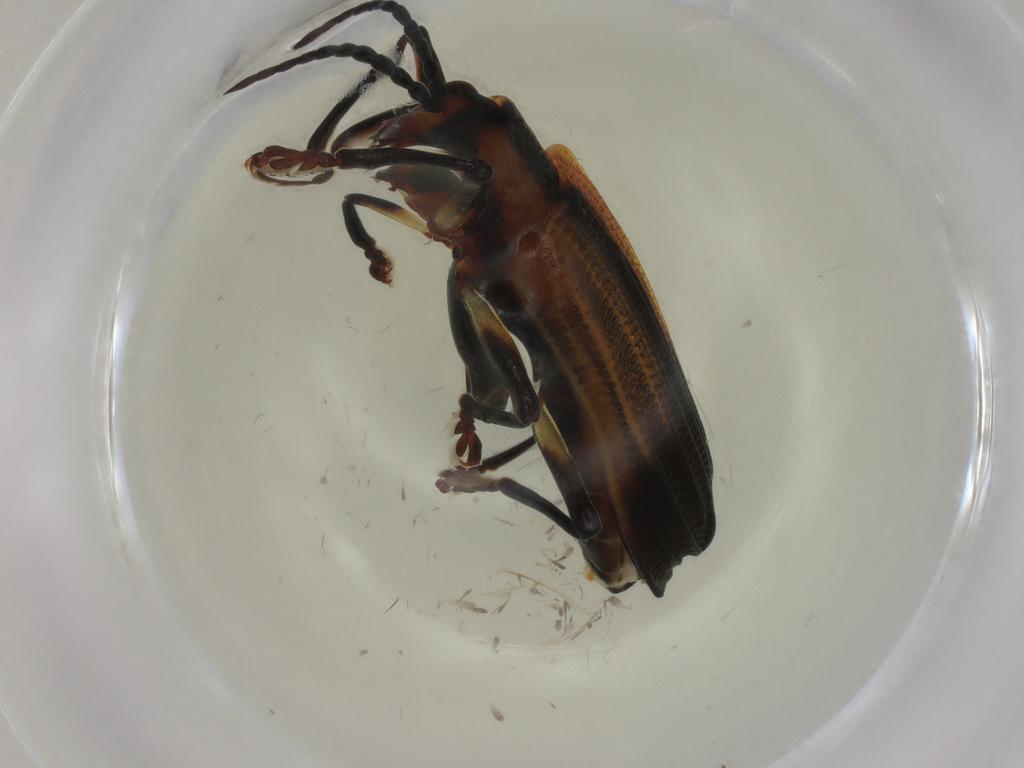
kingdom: Animalia
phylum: Arthropoda
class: Insecta
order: Coleoptera
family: Chrysomelidae
